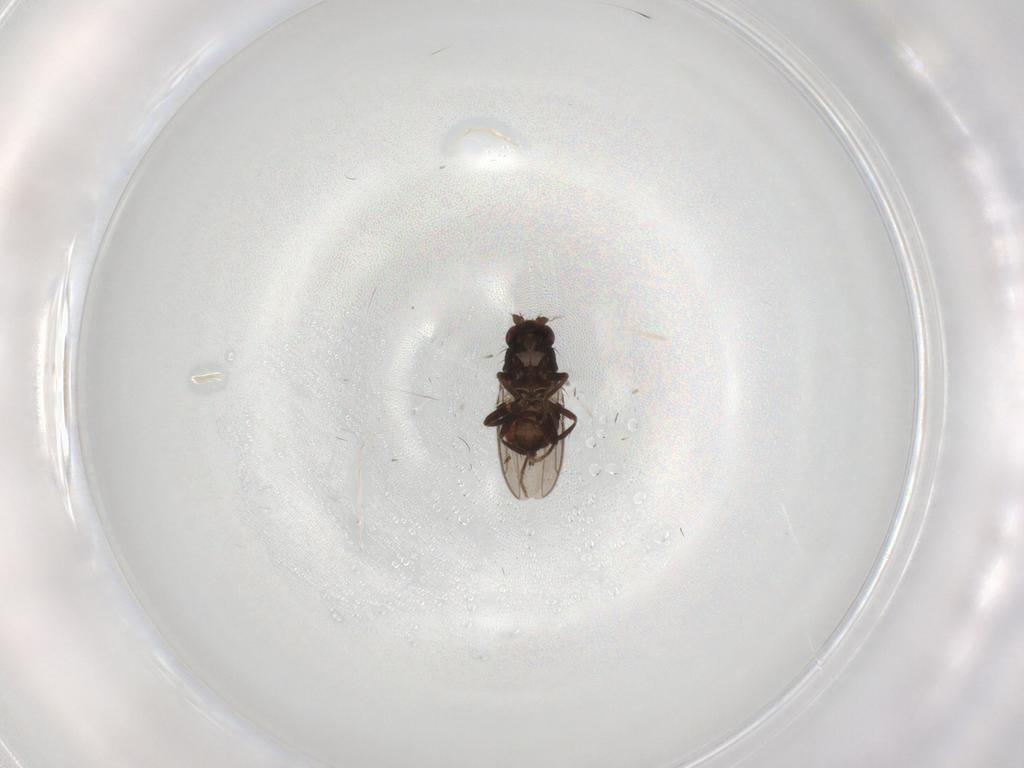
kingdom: Animalia
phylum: Arthropoda
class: Insecta
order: Diptera
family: Sphaeroceridae
